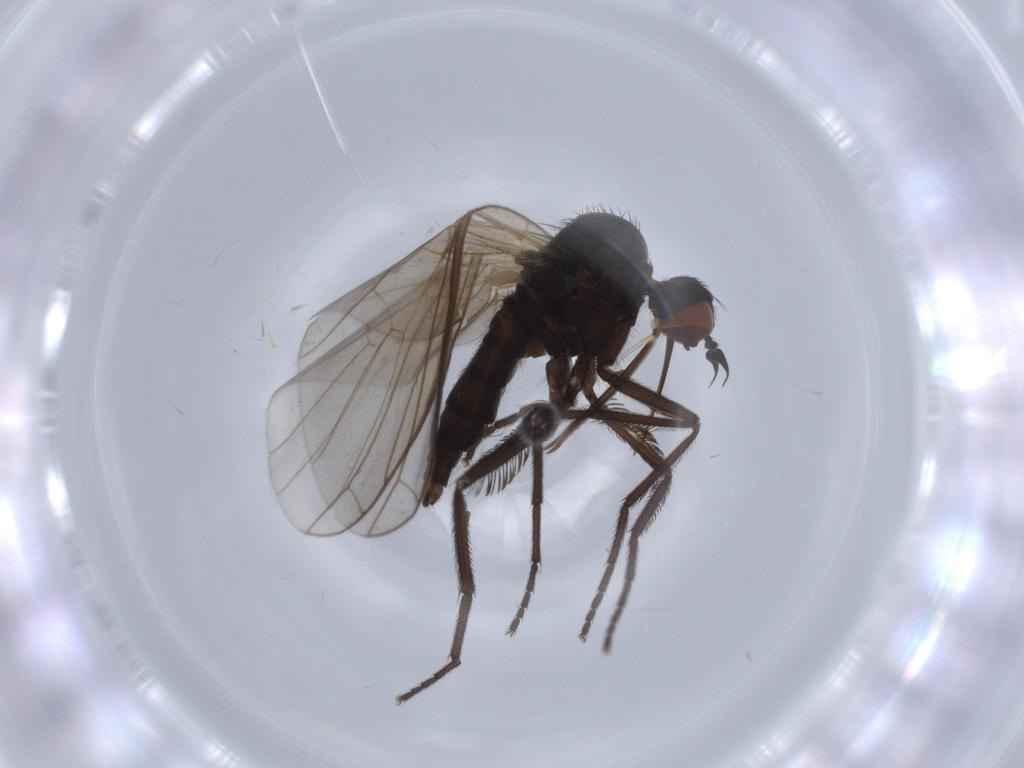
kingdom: Animalia
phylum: Arthropoda
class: Insecta
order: Diptera
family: Empididae
